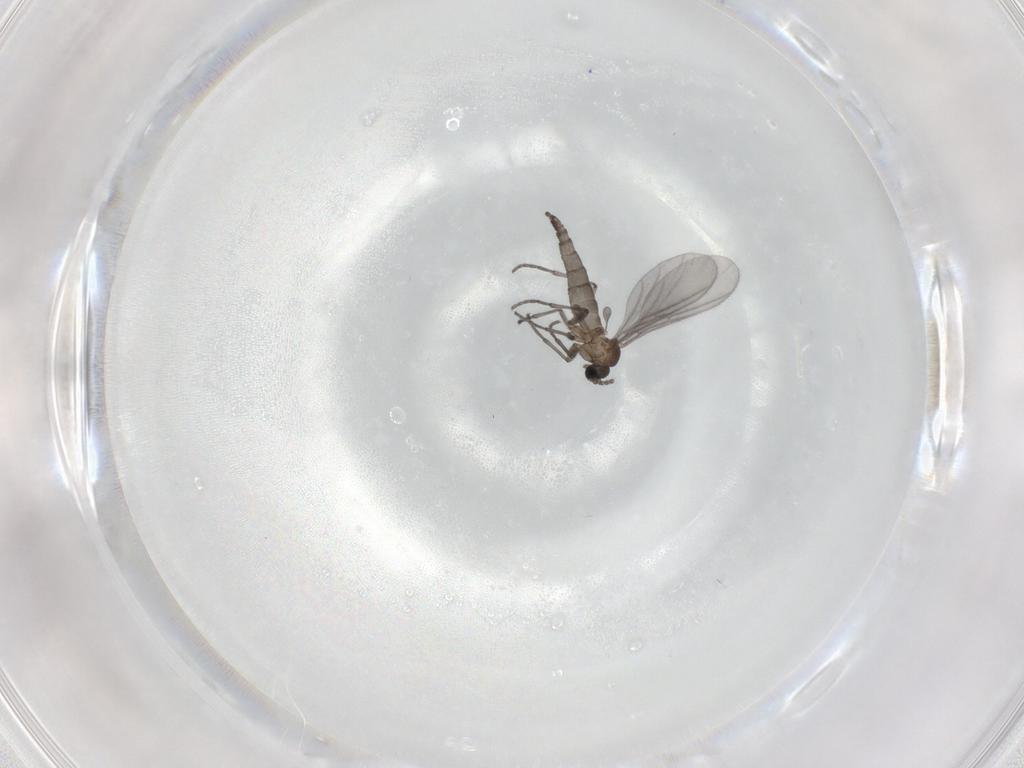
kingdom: Animalia
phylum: Arthropoda
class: Insecta
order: Diptera
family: Sciaridae
